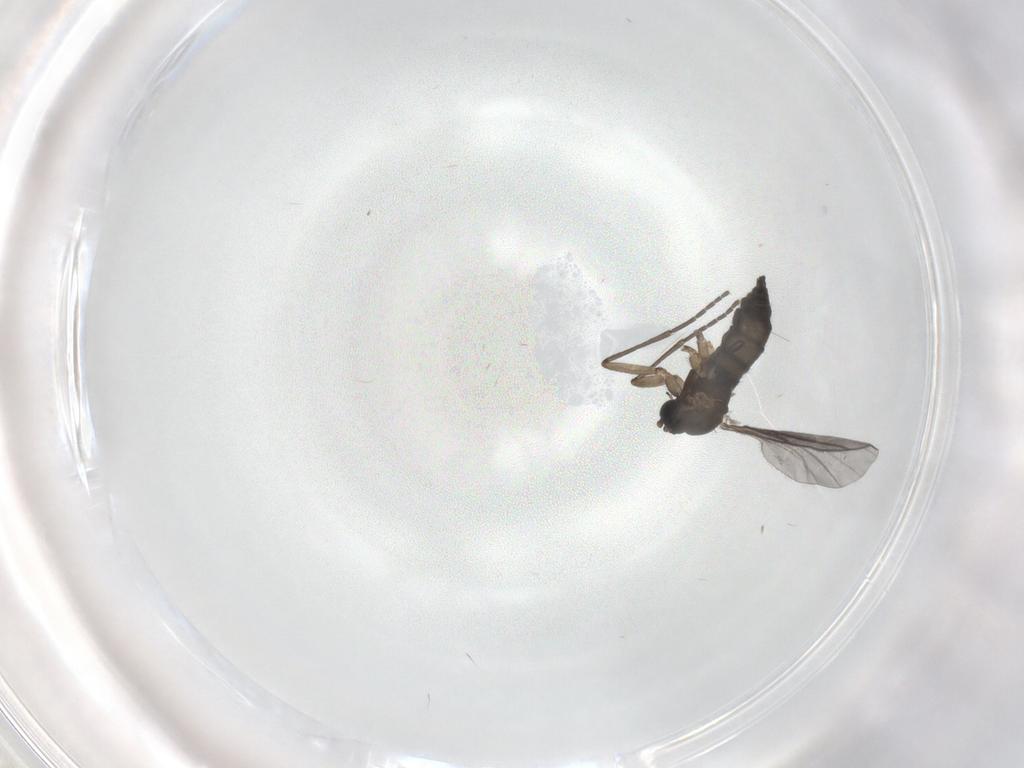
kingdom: Animalia
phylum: Arthropoda
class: Insecta
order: Diptera
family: Sciaridae
